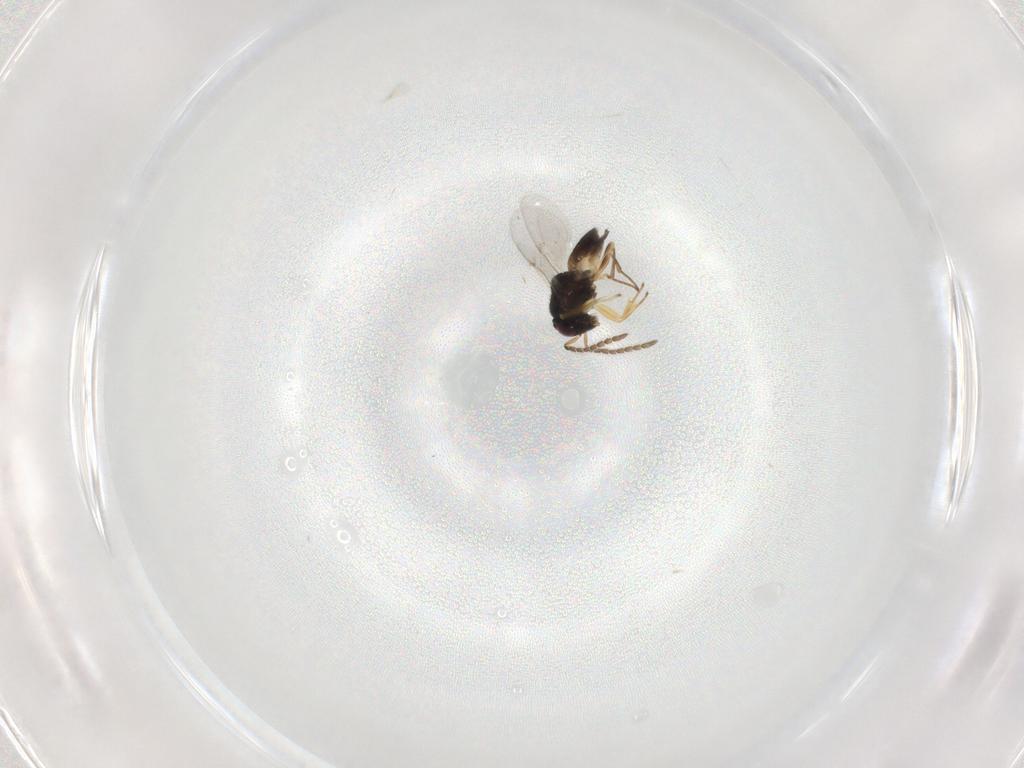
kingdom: Animalia
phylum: Arthropoda
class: Insecta
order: Hymenoptera
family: Encyrtidae
